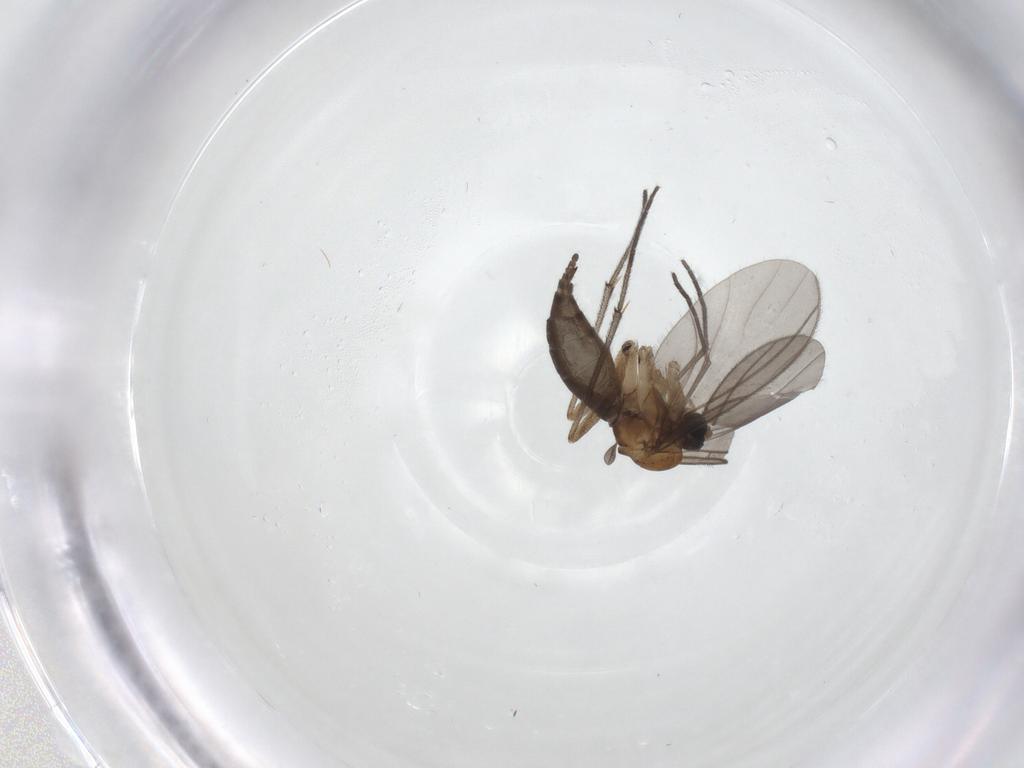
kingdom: Animalia
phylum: Arthropoda
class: Insecta
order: Diptera
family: Sciaridae
